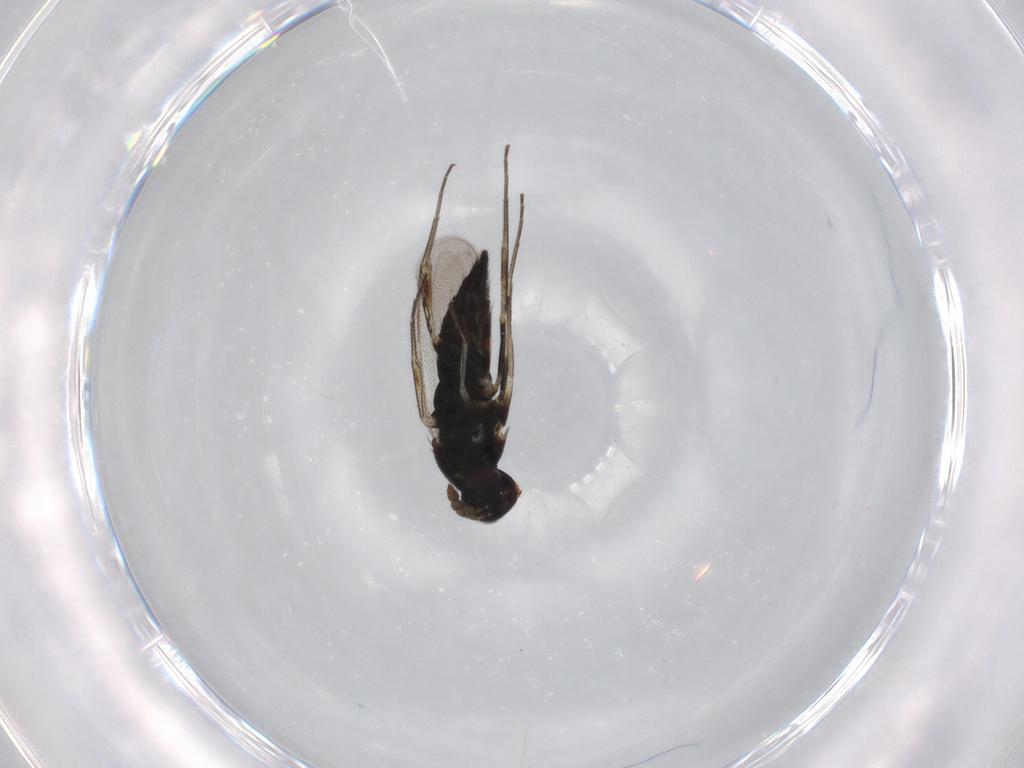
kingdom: Animalia
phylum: Arthropoda
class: Insecta
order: Hymenoptera
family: Eulophidae
